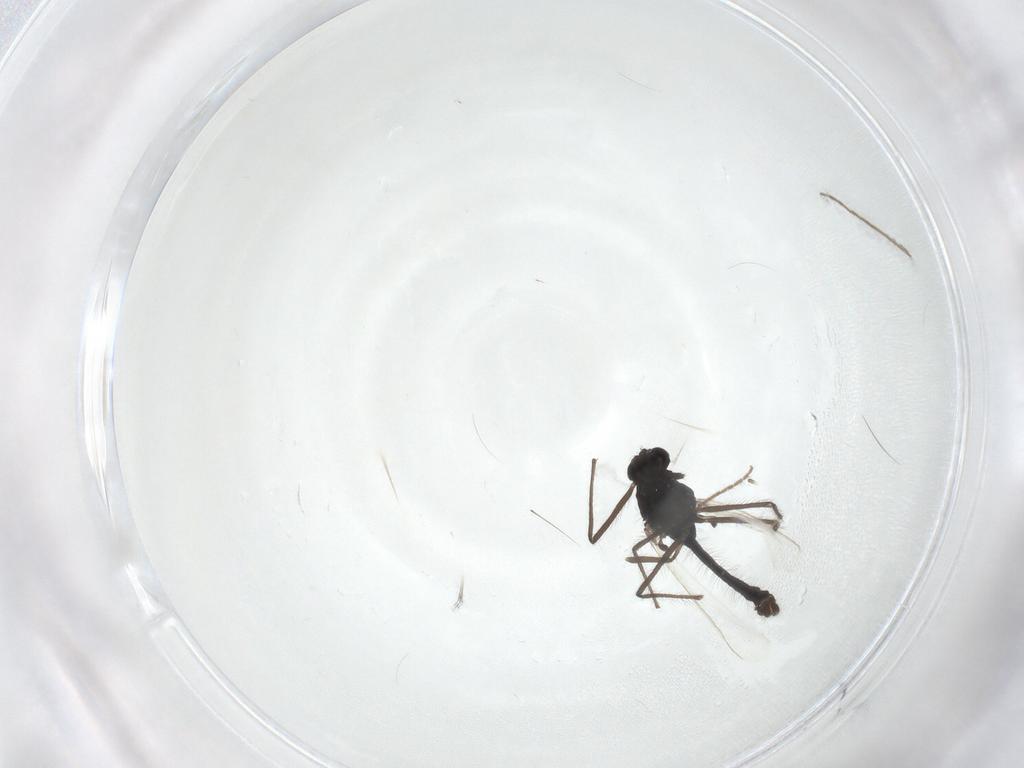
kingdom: Animalia
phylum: Arthropoda
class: Insecta
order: Diptera
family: Chironomidae
